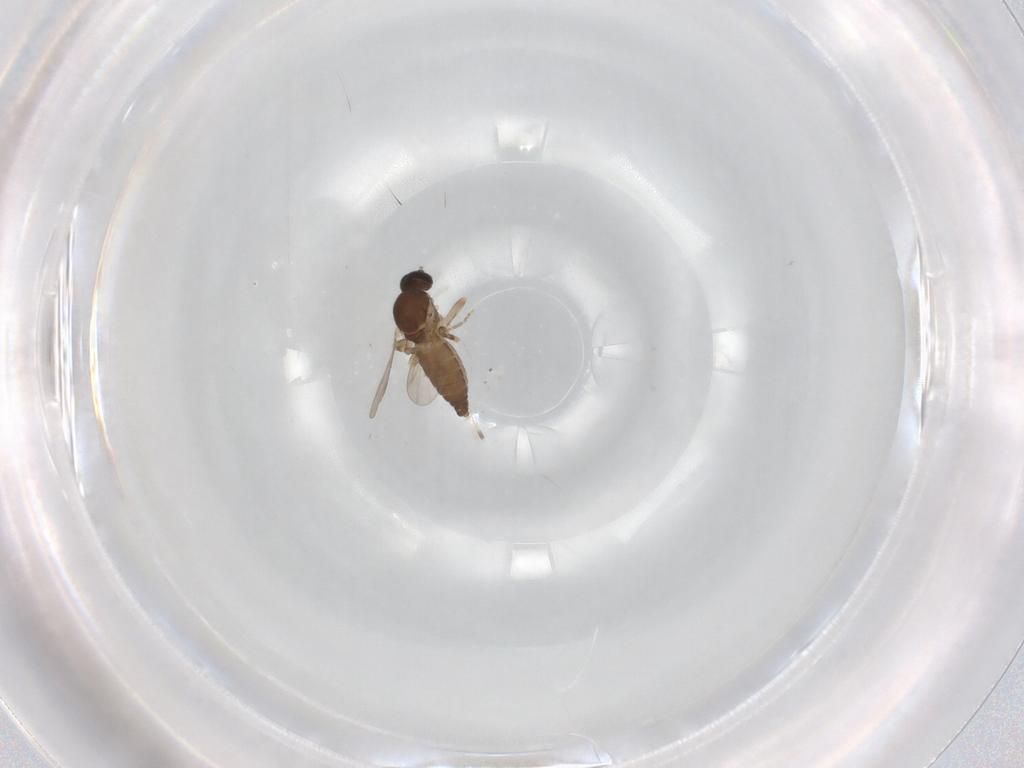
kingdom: Animalia
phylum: Arthropoda
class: Insecta
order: Diptera
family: Ceratopogonidae
